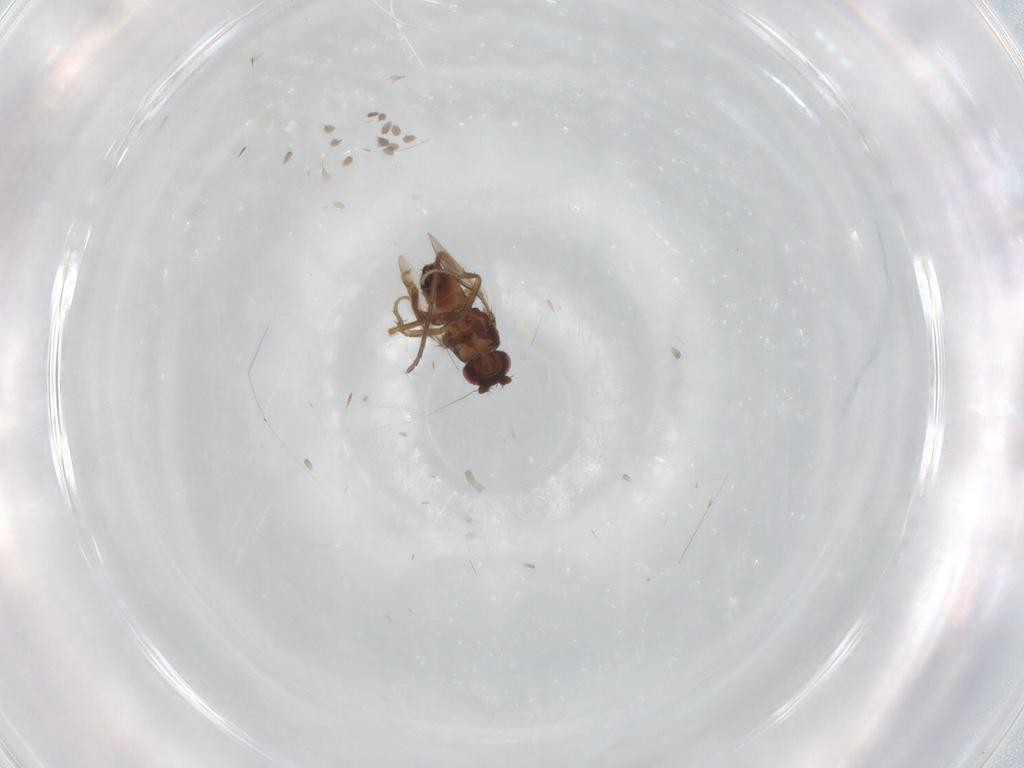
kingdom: Animalia
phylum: Arthropoda
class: Insecta
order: Diptera
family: Sphaeroceridae
